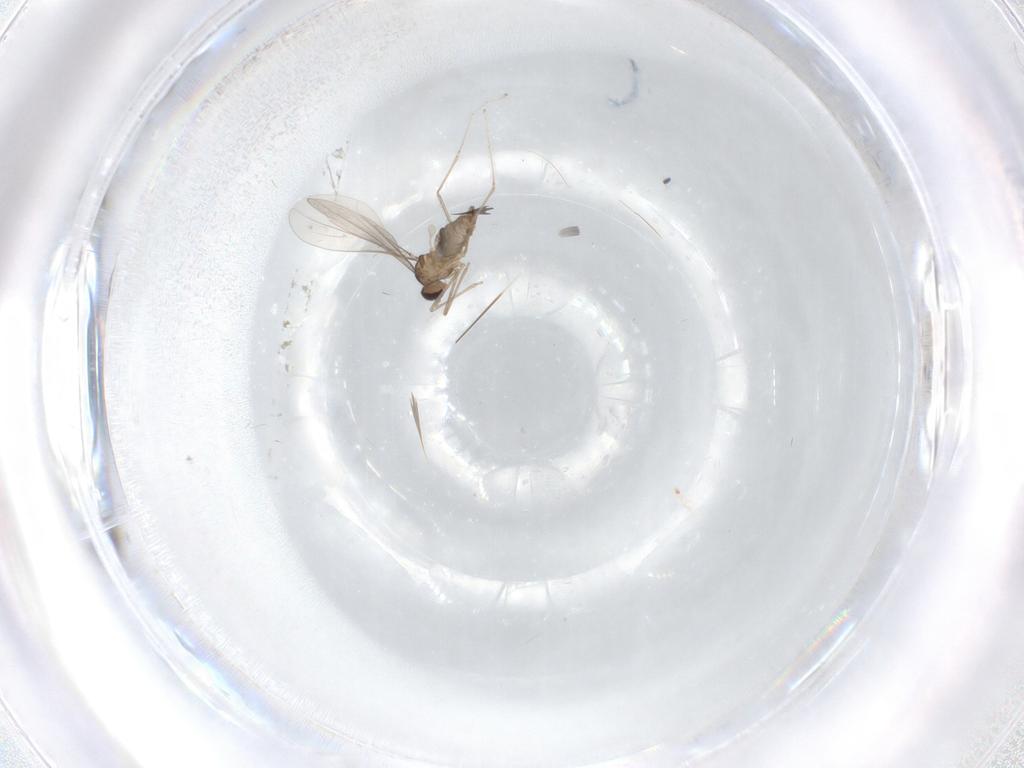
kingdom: Animalia
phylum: Arthropoda
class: Insecta
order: Diptera
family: Cecidomyiidae
